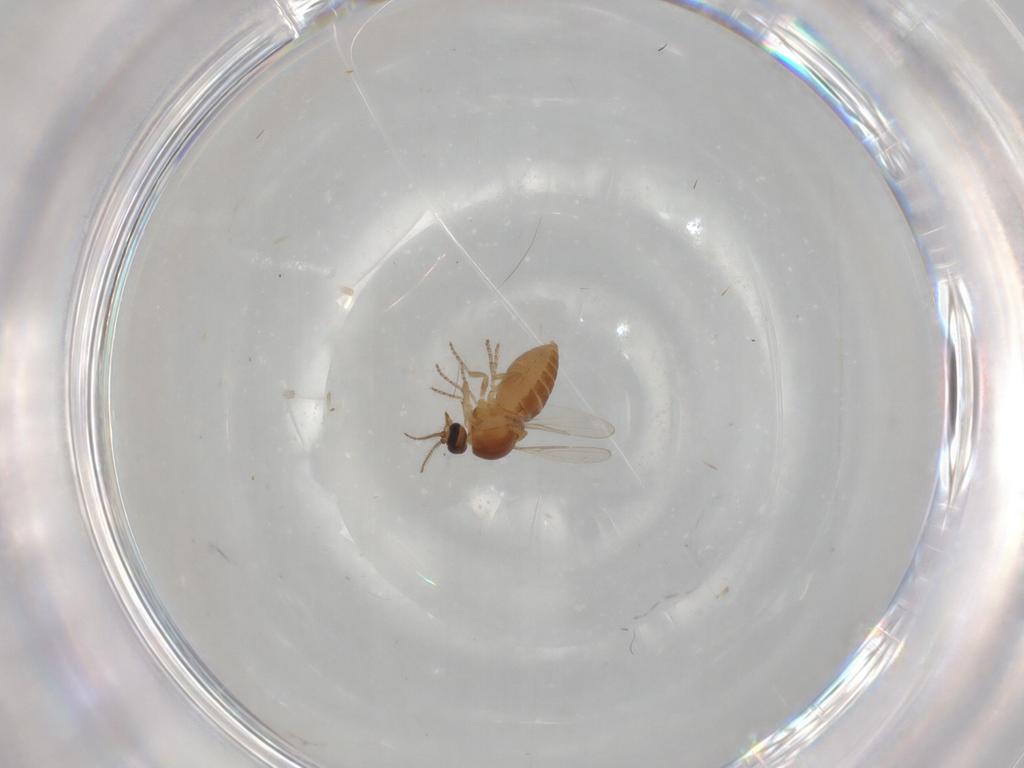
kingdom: Animalia
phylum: Arthropoda
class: Insecta
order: Diptera
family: Ceratopogonidae
